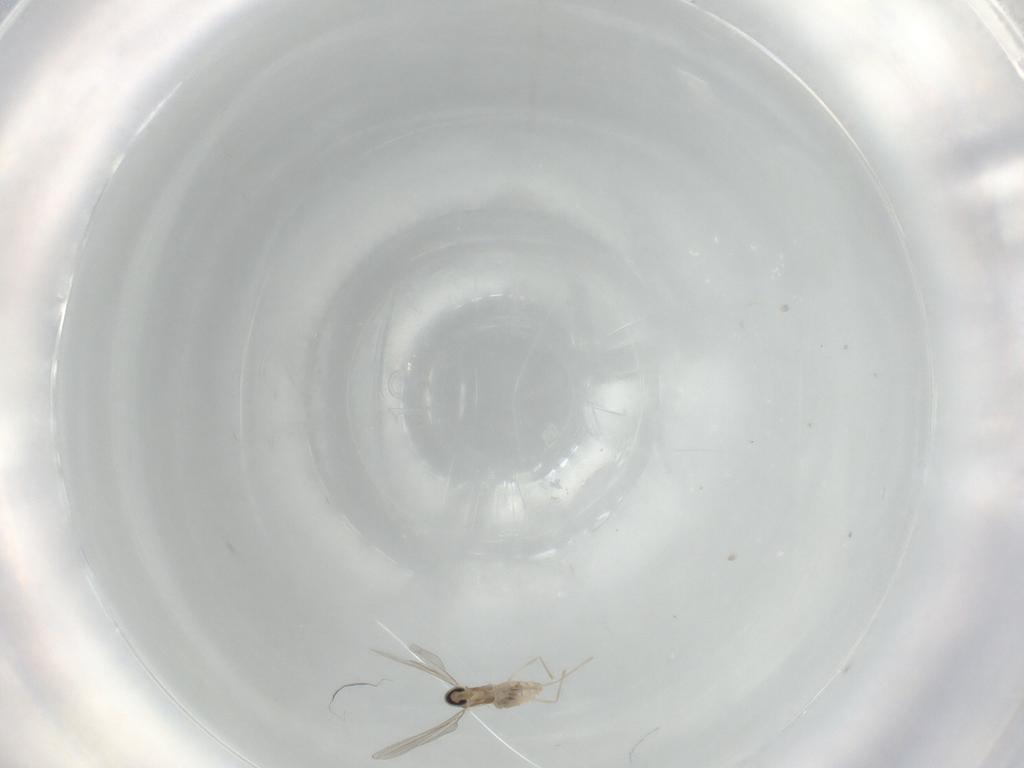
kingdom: Animalia
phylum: Arthropoda
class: Insecta
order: Diptera
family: Cecidomyiidae
